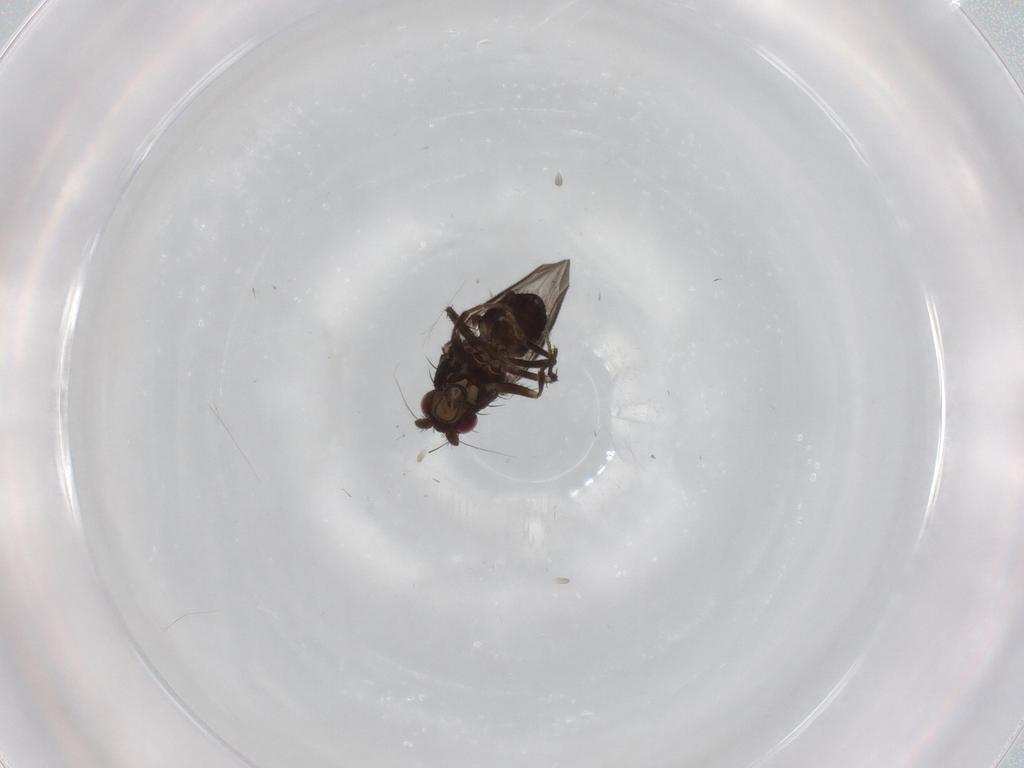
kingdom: Animalia
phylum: Arthropoda
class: Insecta
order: Diptera
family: Sphaeroceridae
